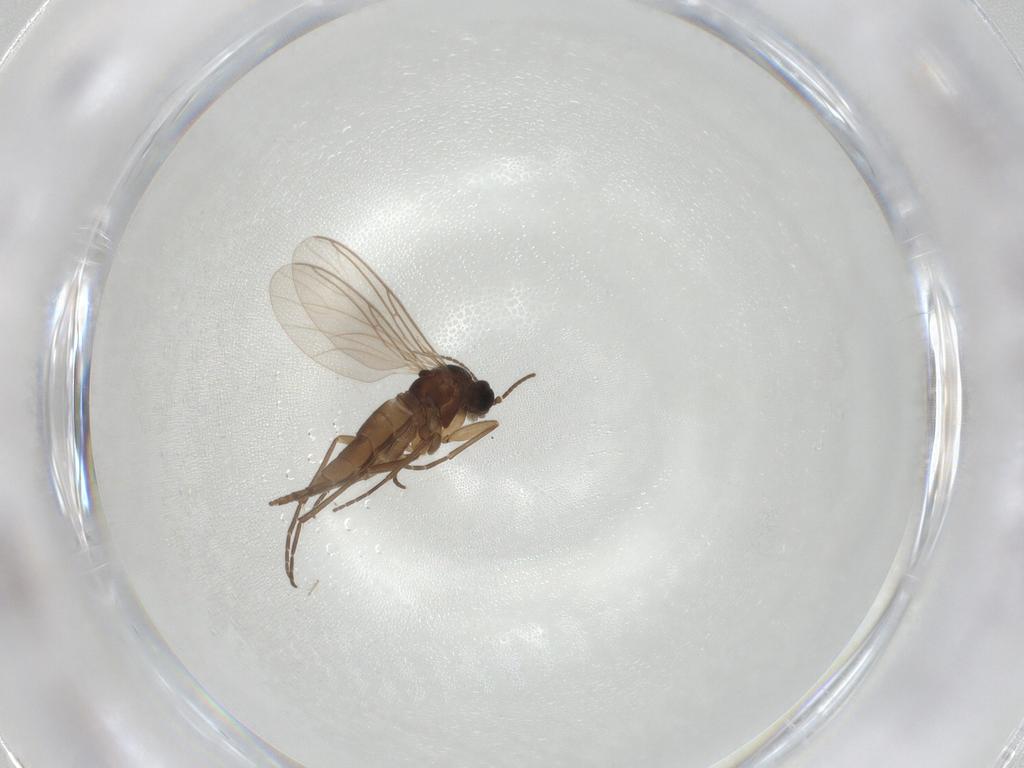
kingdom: Animalia
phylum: Arthropoda
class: Insecta
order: Diptera
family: Sciaridae
